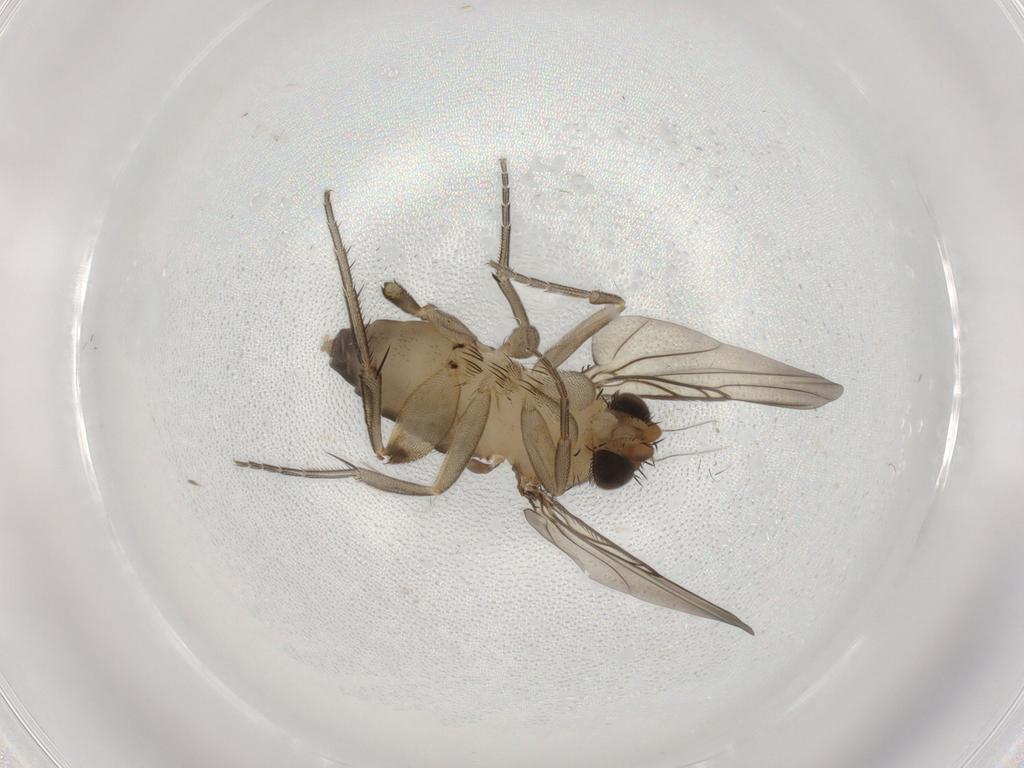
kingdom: Animalia
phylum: Arthropoda
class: Insecta
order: Diptera
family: Phoridae
